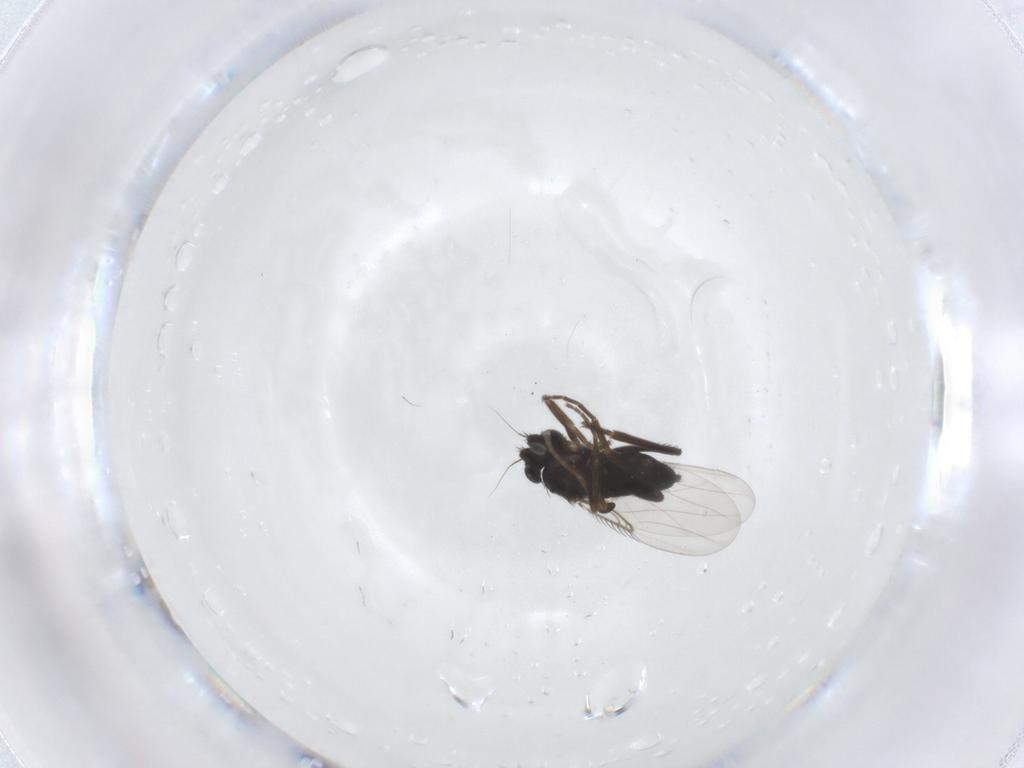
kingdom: Animalia
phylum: Arthropoda
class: Insecta
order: Diptera
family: Phoridae
